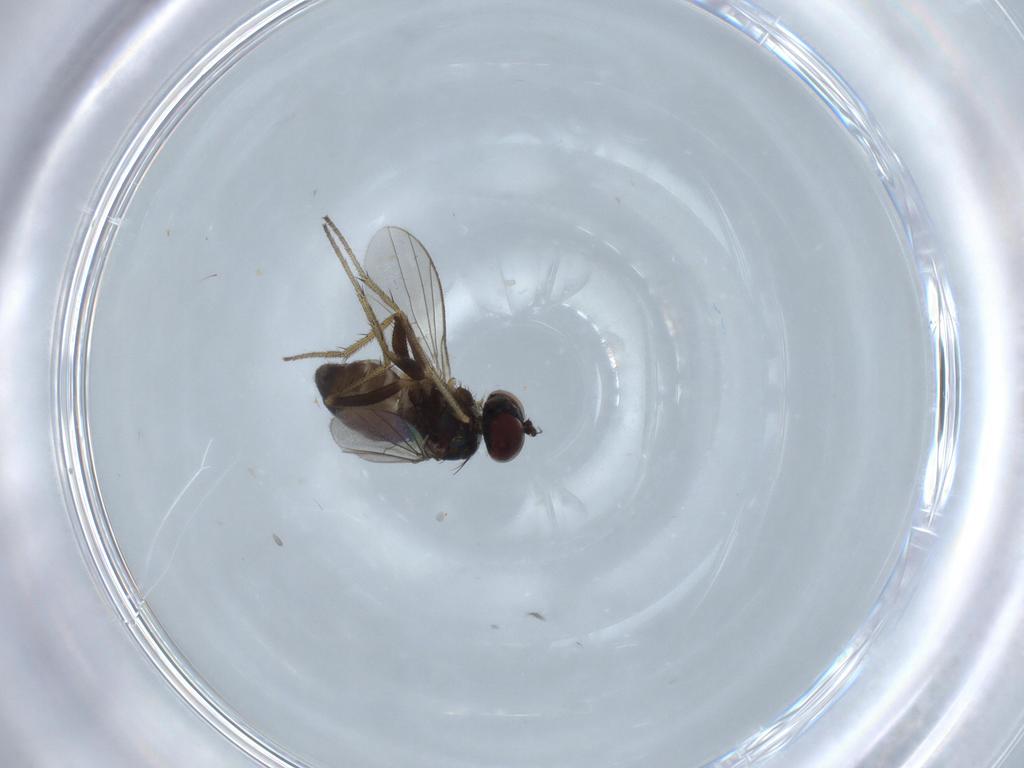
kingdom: Animalia
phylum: Arthropoda
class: Insecta
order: Diptera
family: Dolichopodidae
